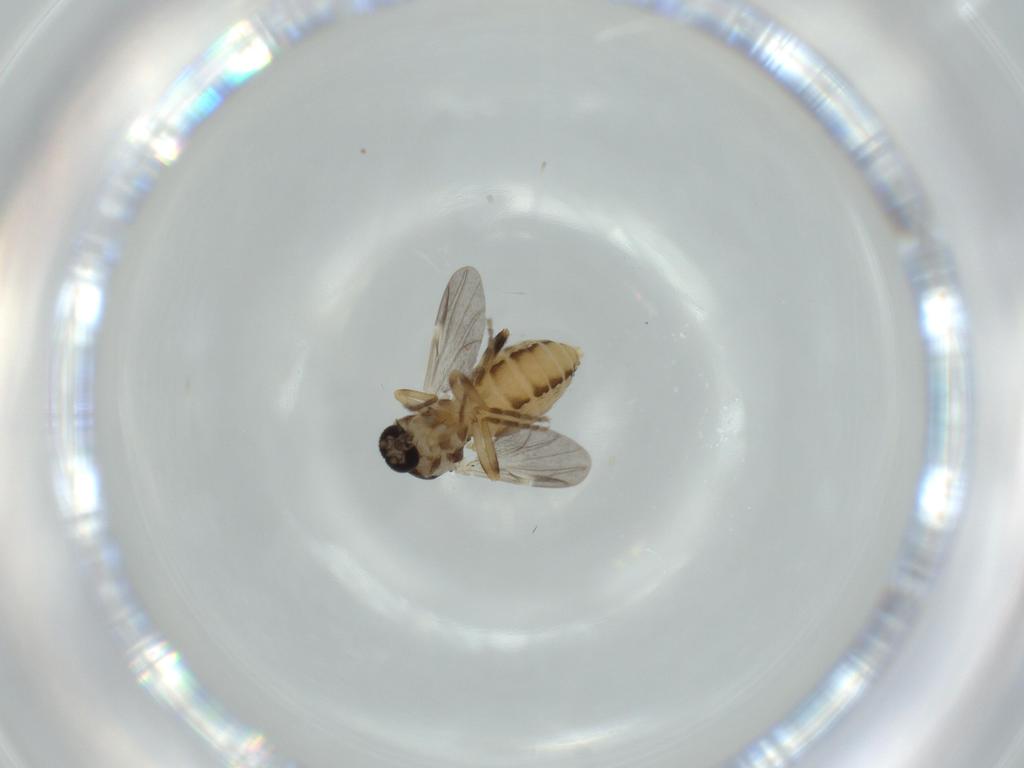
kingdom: Animalia
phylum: Arthropoda
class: Insecta
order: Diptera
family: Ceratopogonidae
